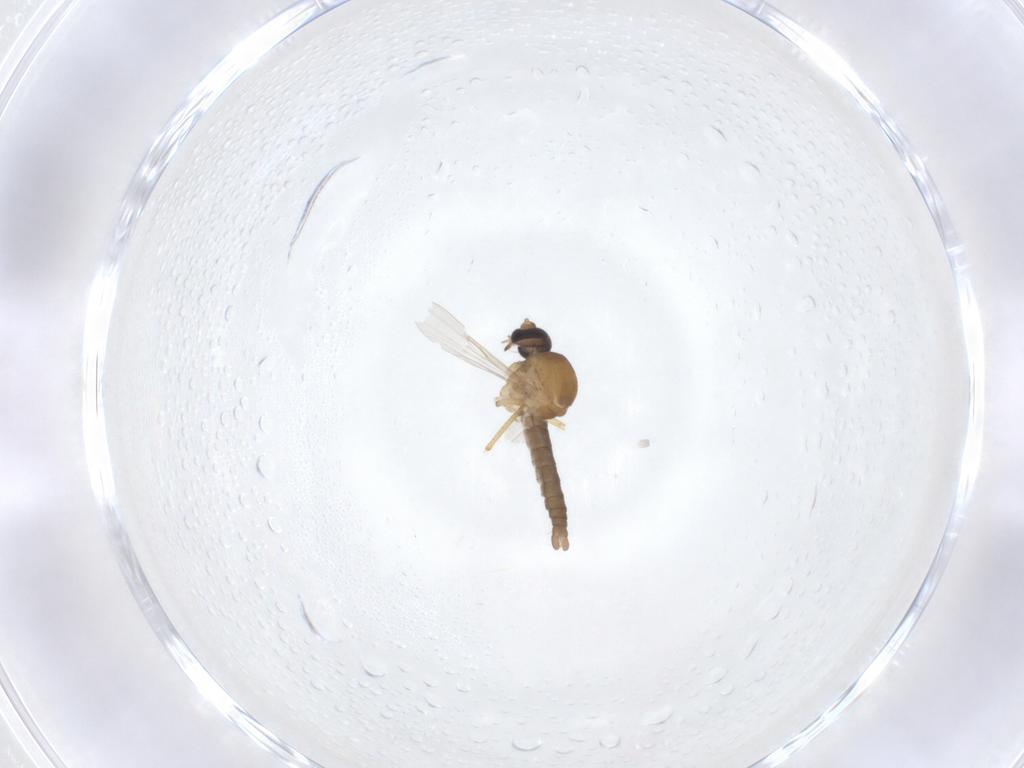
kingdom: Animalia
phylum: Arthropoda
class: Insecta
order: Diptera
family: Ceratopogonidae
